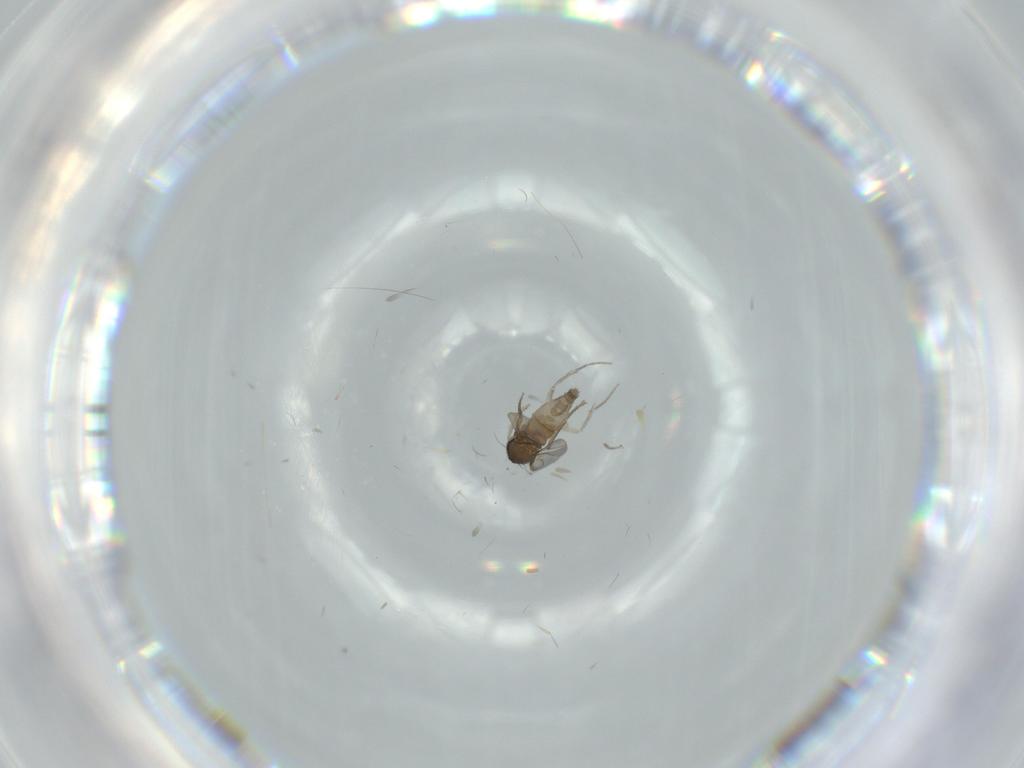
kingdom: Animalia
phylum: Arthropoda
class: Insecta
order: Diptera
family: Phoridae
